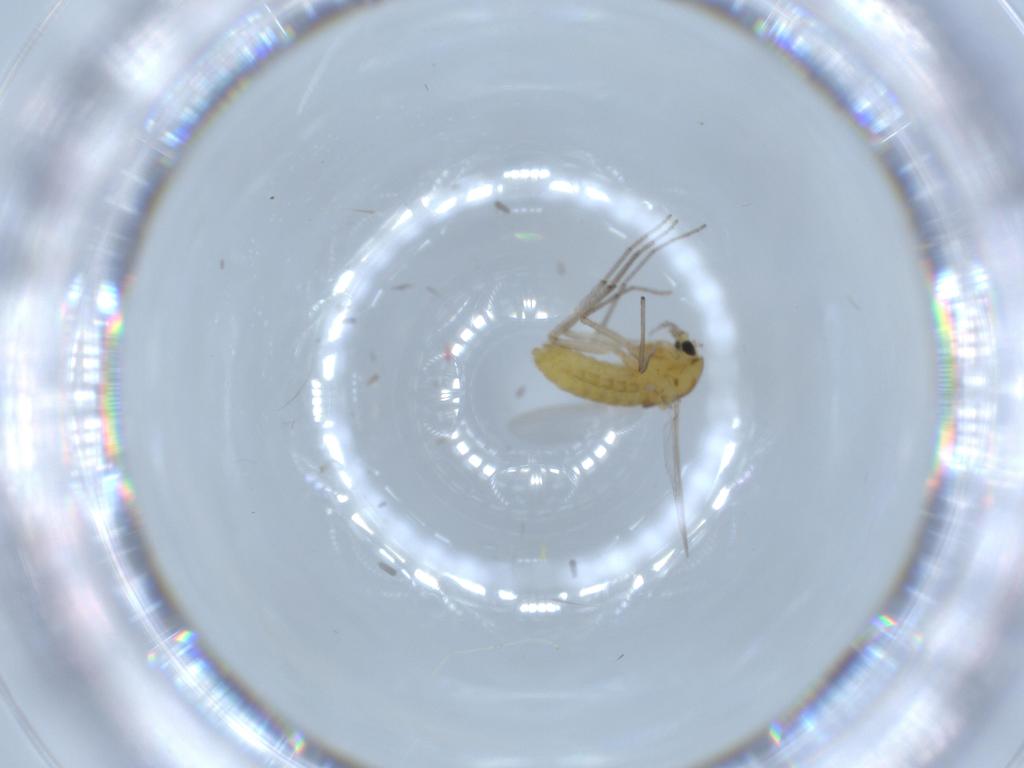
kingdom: Animalia
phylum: Arthropoda
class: Insecta
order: Diptera
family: Chironomidae
